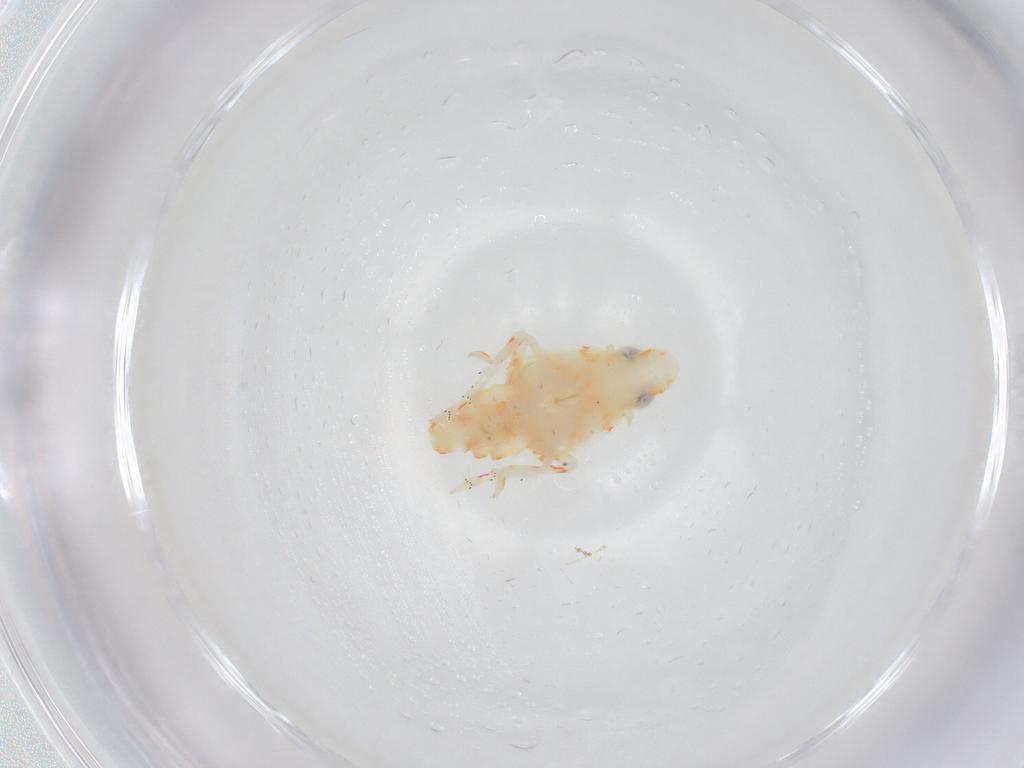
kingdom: Animalia
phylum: Arthropoda
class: Insecta
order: Hemiptera
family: Tropiduchidae
